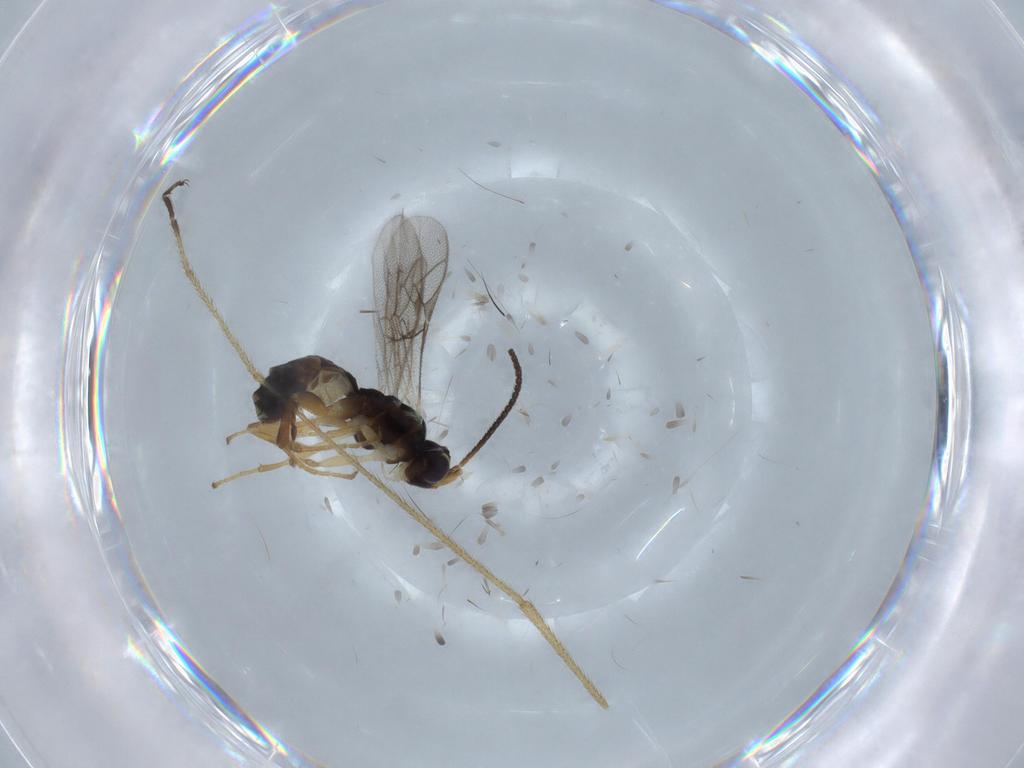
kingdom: Animalia
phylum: Arthropoda
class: Insecta
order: Hymenoptera
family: Ichneumonidae
